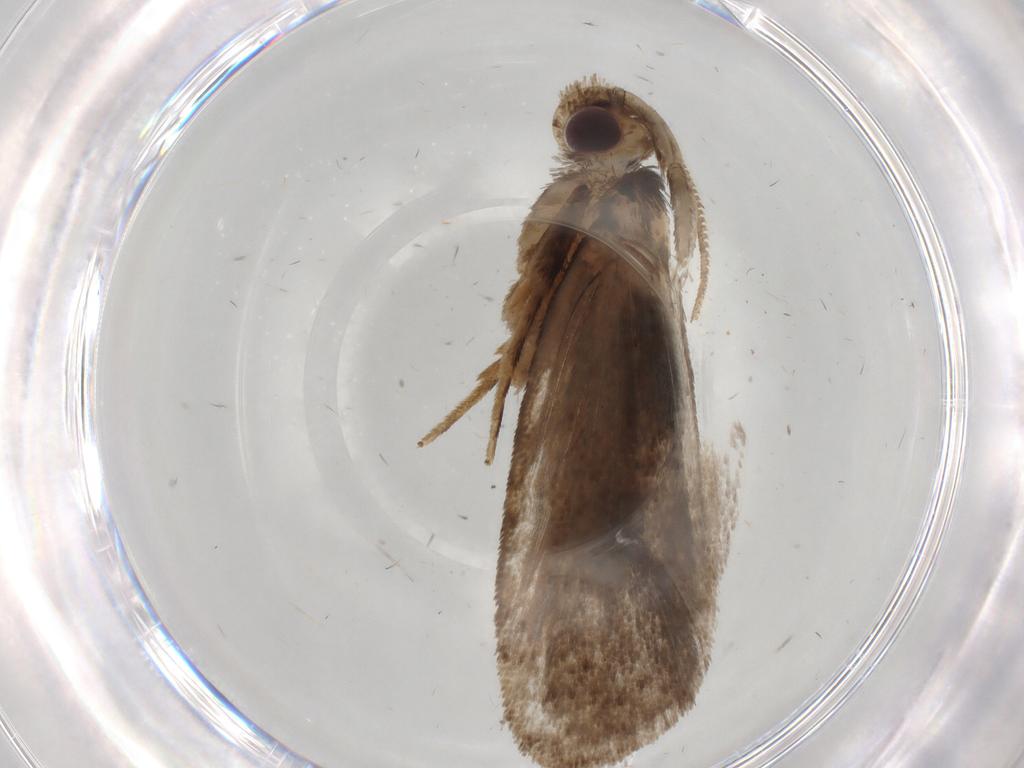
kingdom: Animalia
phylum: Arthropoda
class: Insecta
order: Lepidoptera
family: Tineidae
